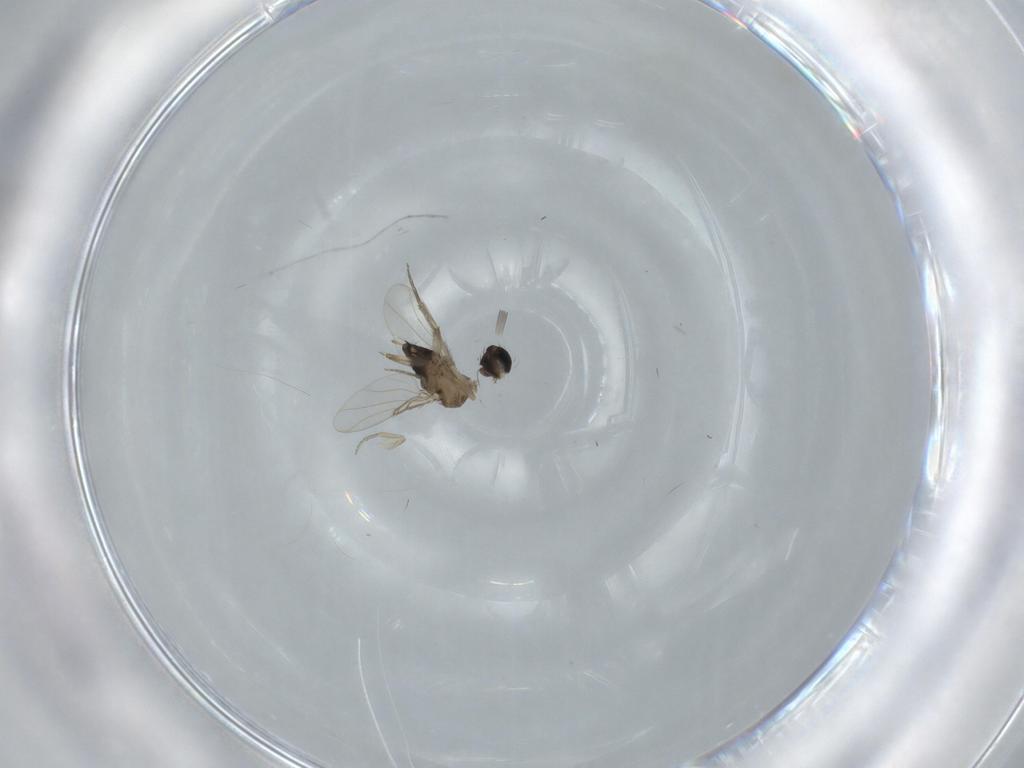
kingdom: Animalia
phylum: Arthropoda
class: Insecta
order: Diptera
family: Phoridae
